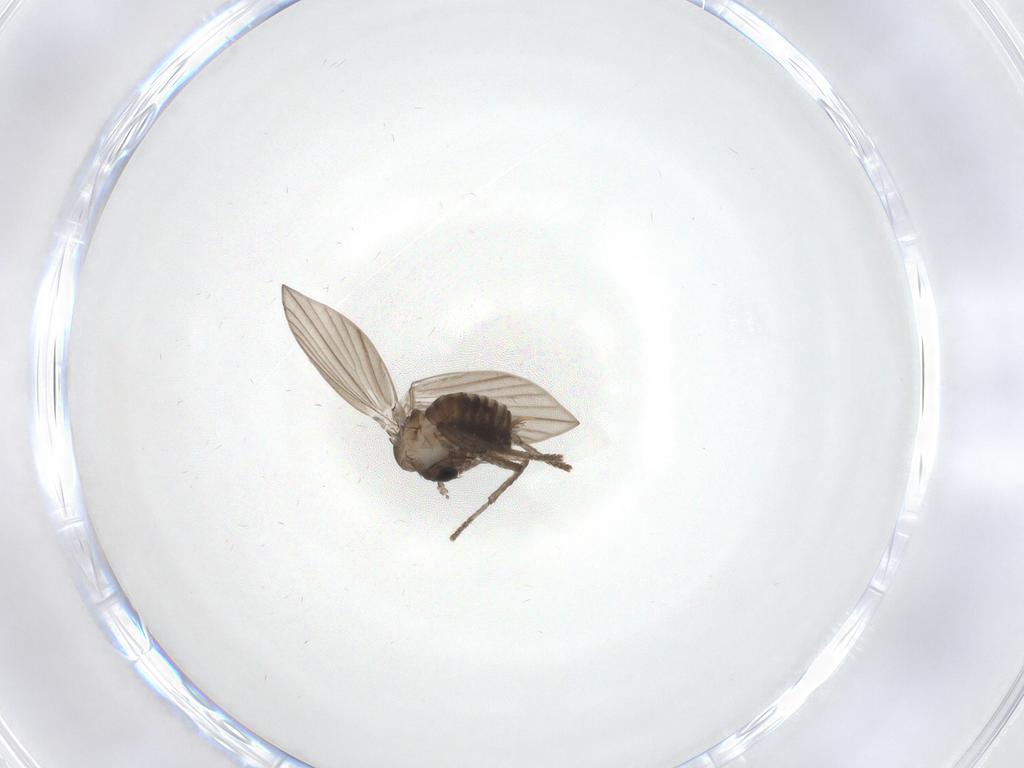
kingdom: Animalia
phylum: Arthropoda
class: Insecta
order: Diptera
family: Psychodidae
